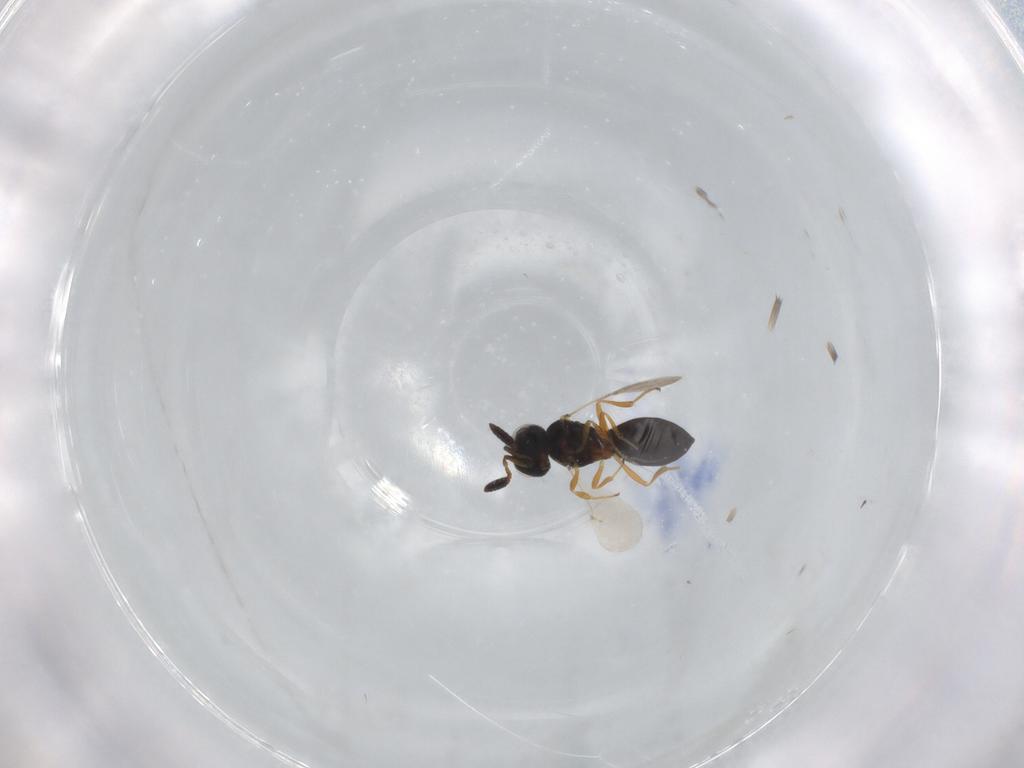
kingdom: Animalia
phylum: Arthropoda
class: Insecta
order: Hymenoptera
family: Scelionidae
